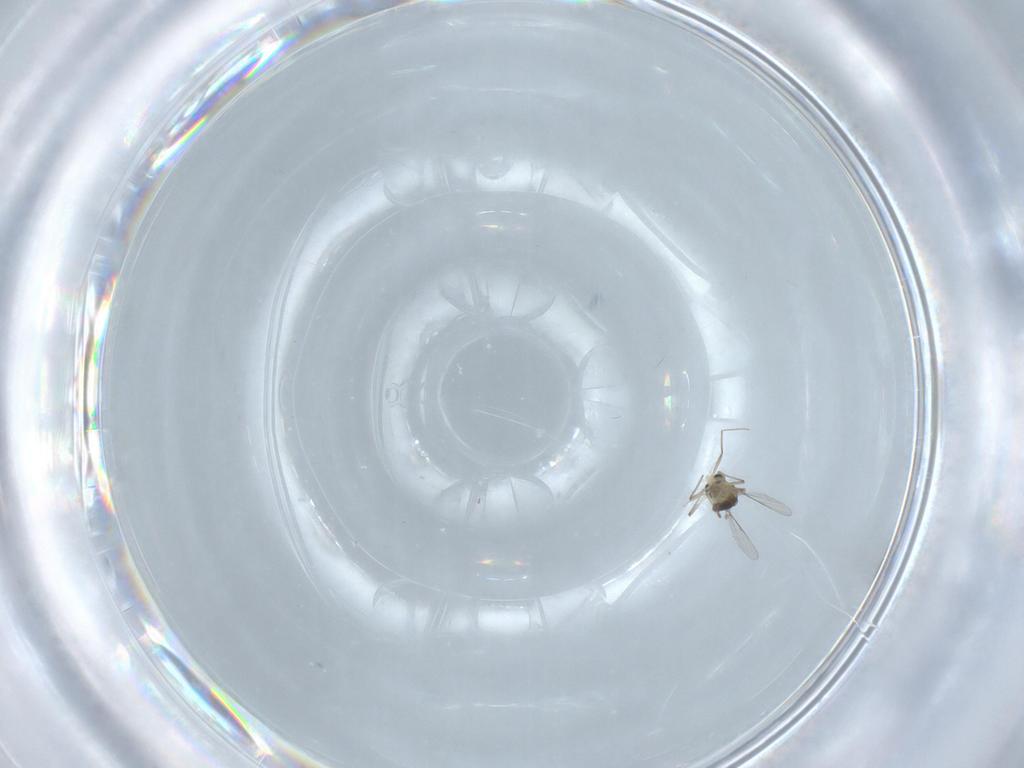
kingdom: Animalia
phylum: Arthropoda
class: Insecta
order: Diptera
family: Chironomidae
